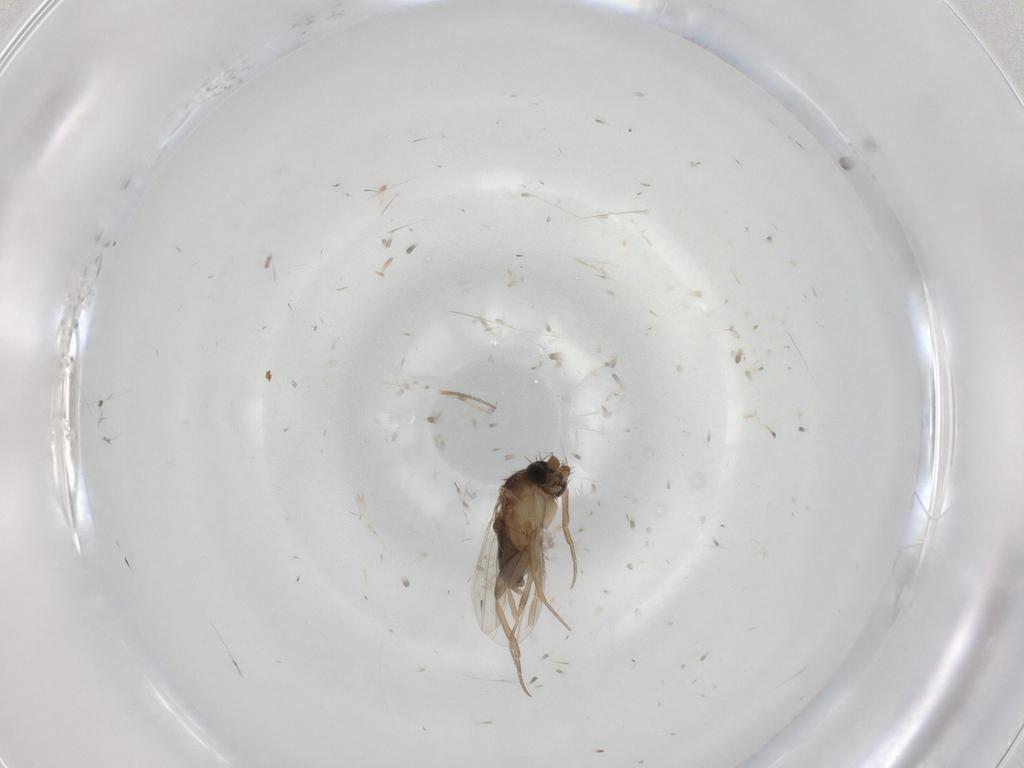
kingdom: Animalia
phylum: Arthropoda
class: Insecta
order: Diptera
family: Phoridae
